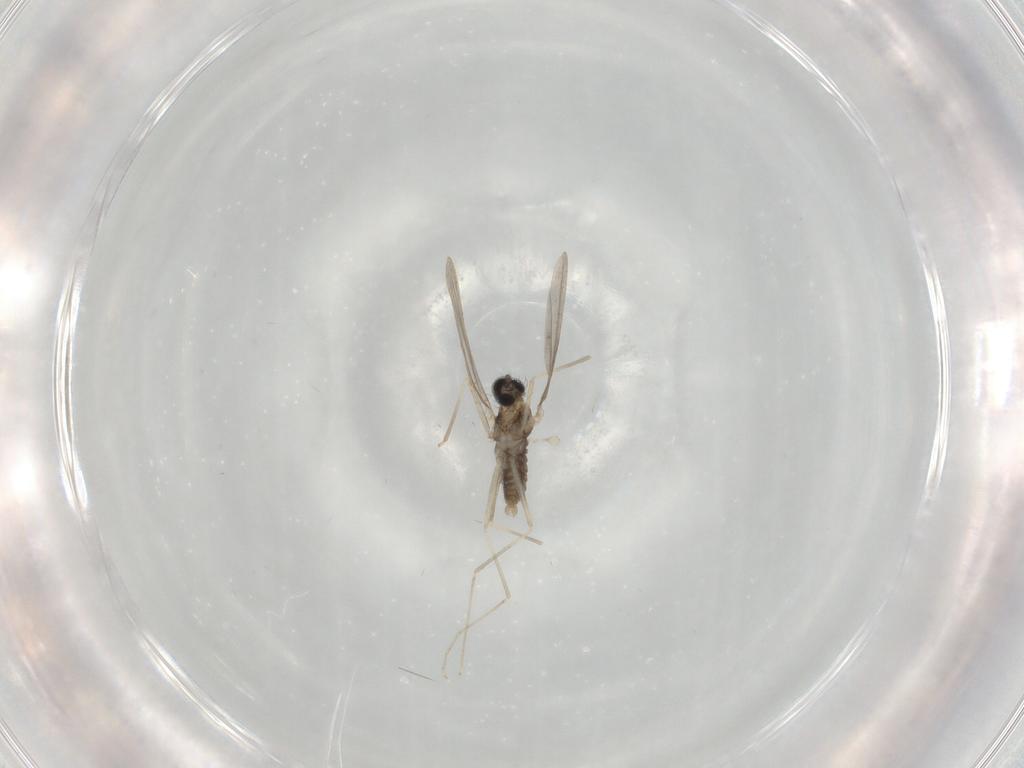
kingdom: Animalia
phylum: Arthropoda
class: Insecta
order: Diptera
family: Cecidomyiidae
